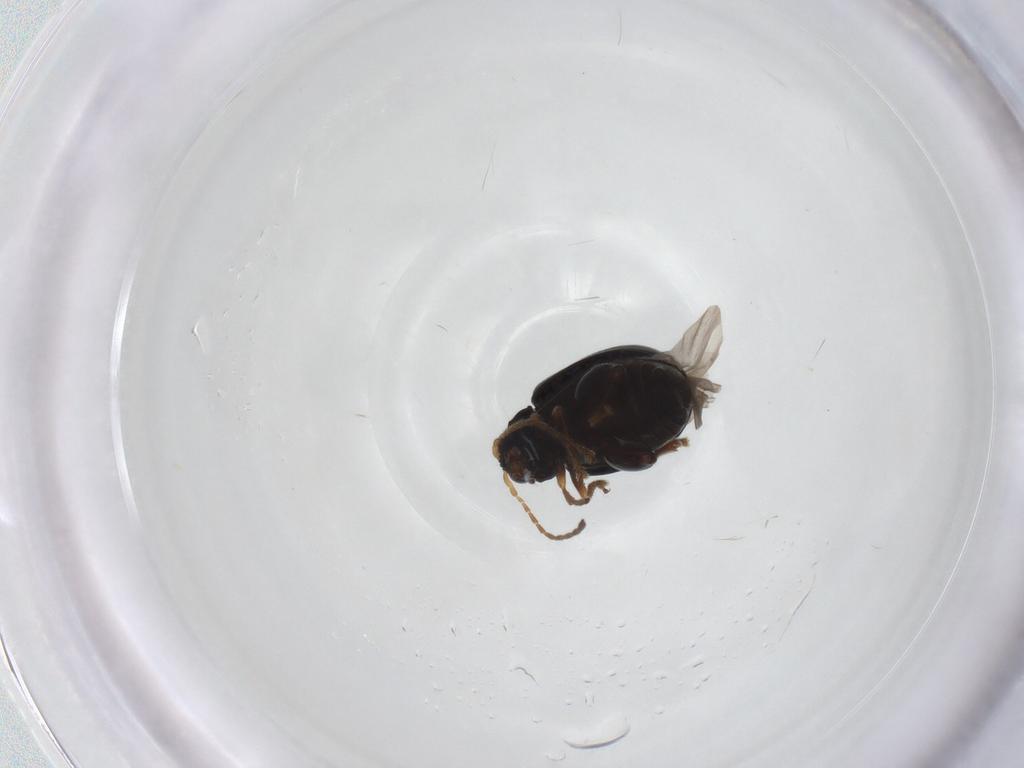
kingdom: Animalia
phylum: Arthropoda
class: Insecta
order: Coleoptera
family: Chrysomelidae
